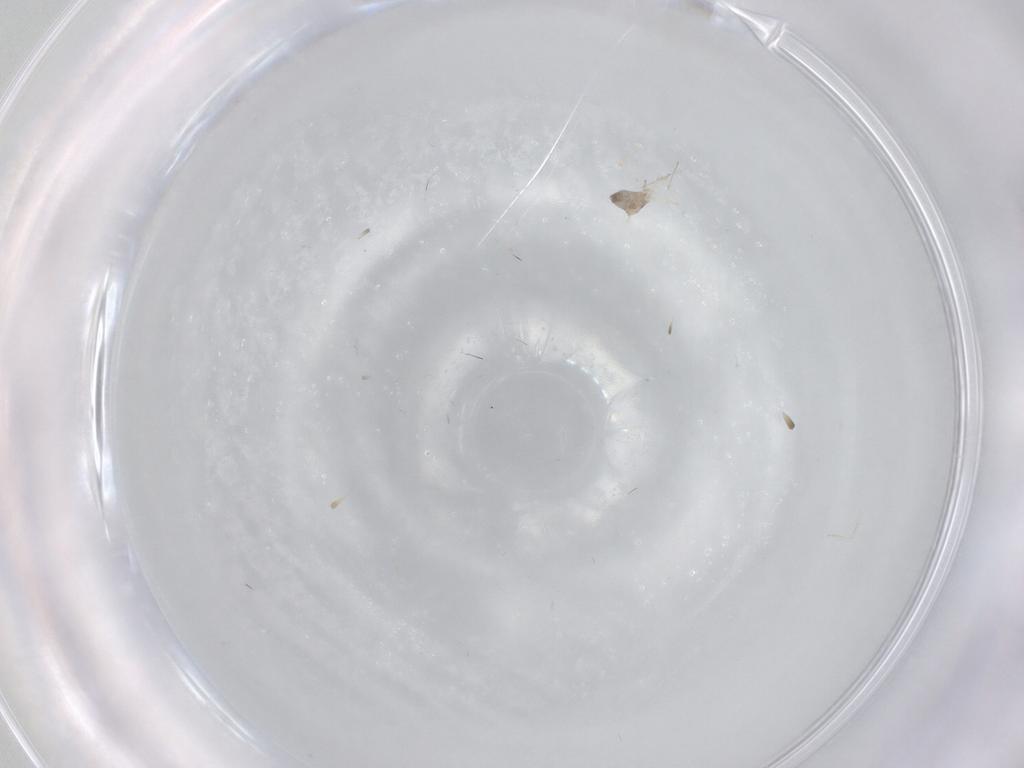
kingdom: Animalia
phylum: Arthropoda
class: Insecta
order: Diptera
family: Cecidomyiidae
